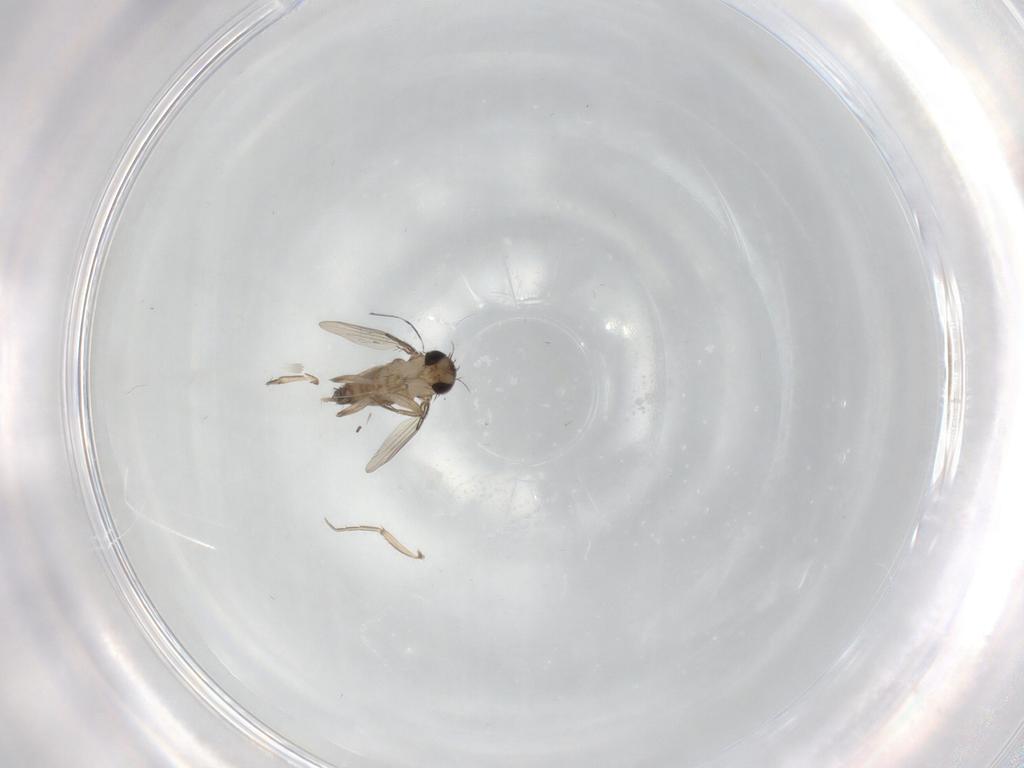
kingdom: Animalia
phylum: Arthropoda
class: Insecta
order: Diptera
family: Phoridae
